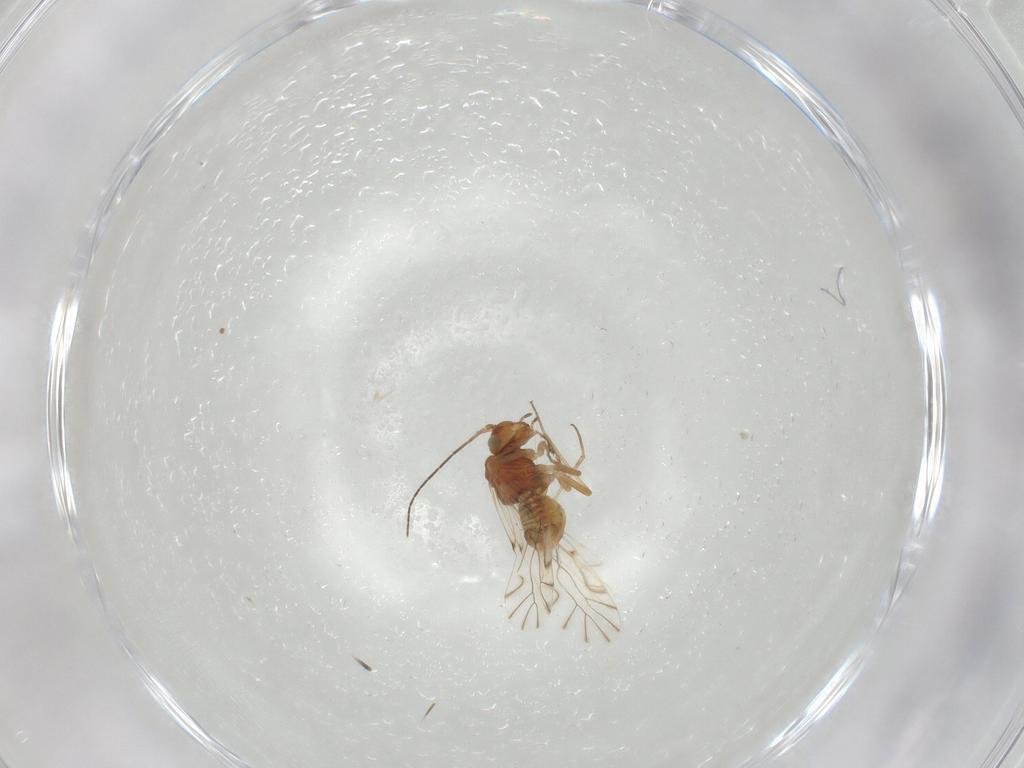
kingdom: Animalia
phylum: Arthropoda
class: Insecta
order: Psocodea
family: Lachesillidae
